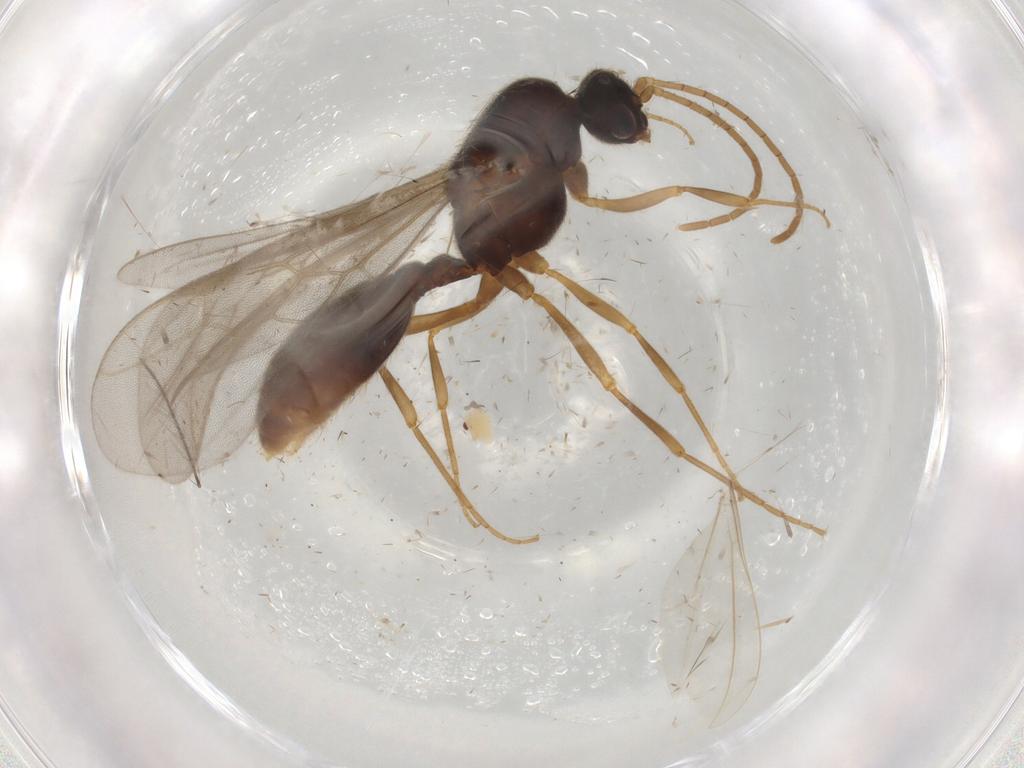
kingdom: Animalia
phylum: Arthropoda
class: Insecta
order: Hymenoptera
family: Formicidae
